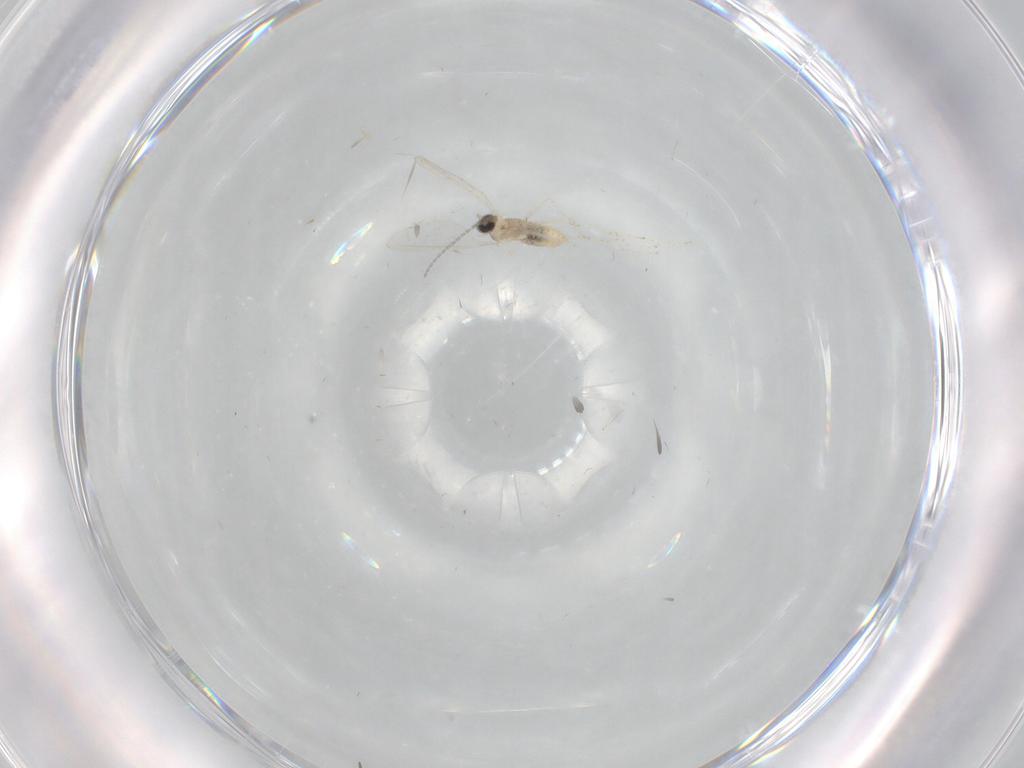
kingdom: Animalia
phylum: Arthropoda
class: Insecta
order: Diptera
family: Cecidomyiidae
